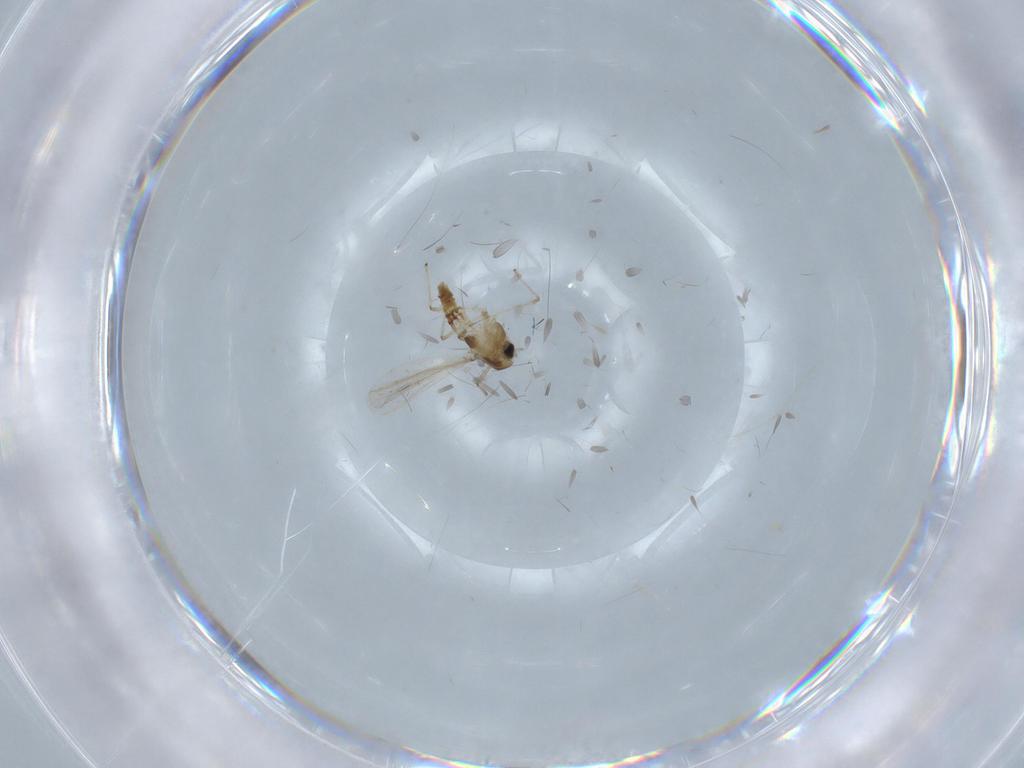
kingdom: Animalia
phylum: Arthropoda
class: Insecta
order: Diptera
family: Chironomidae
